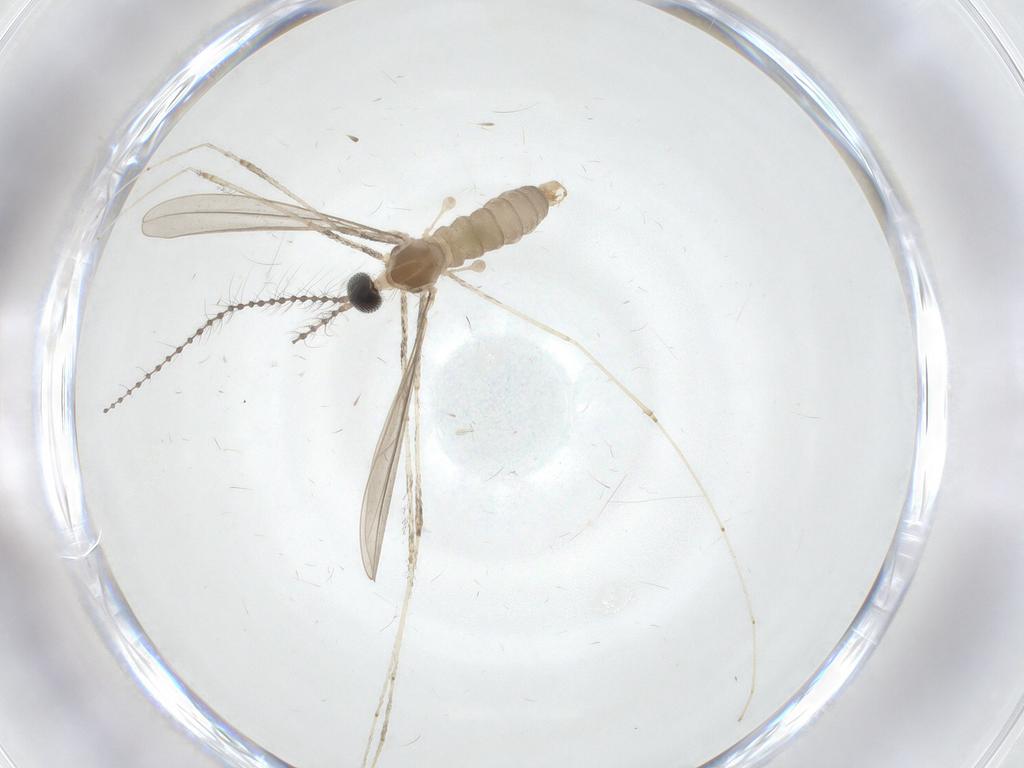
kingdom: Animalia
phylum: Arthropoda
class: Insecta
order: Diptera
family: Cecidomyiidae
